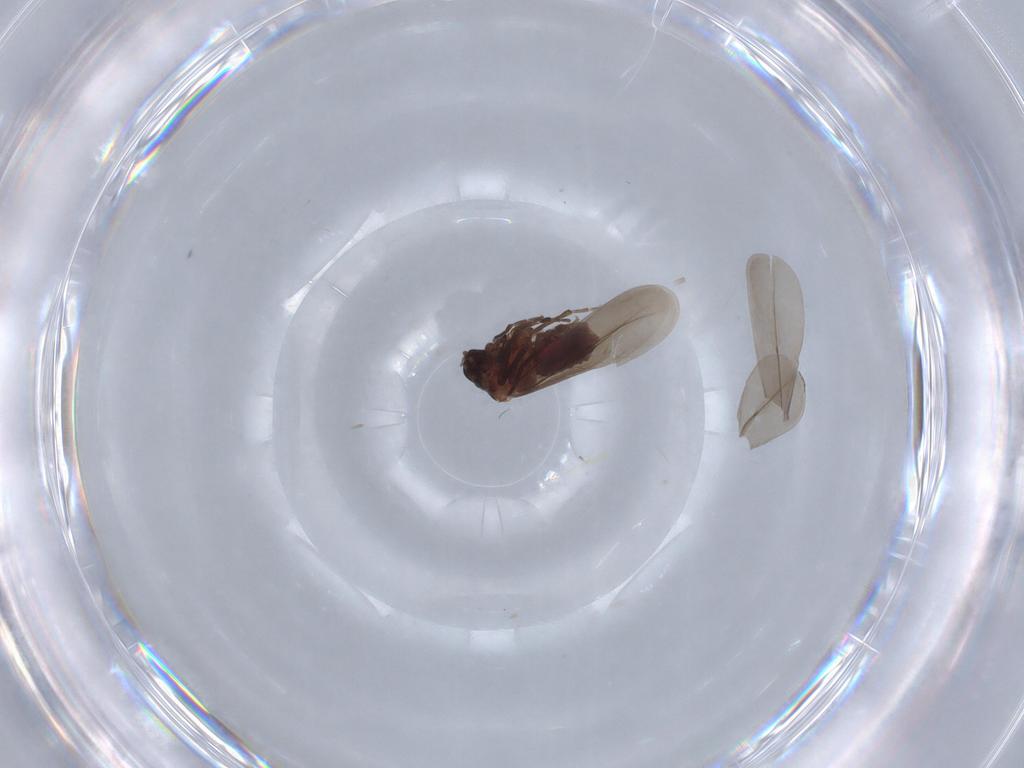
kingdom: Animalia
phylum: Arthropoda
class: Insecta
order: Hemiptera
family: Aleyrodidae
